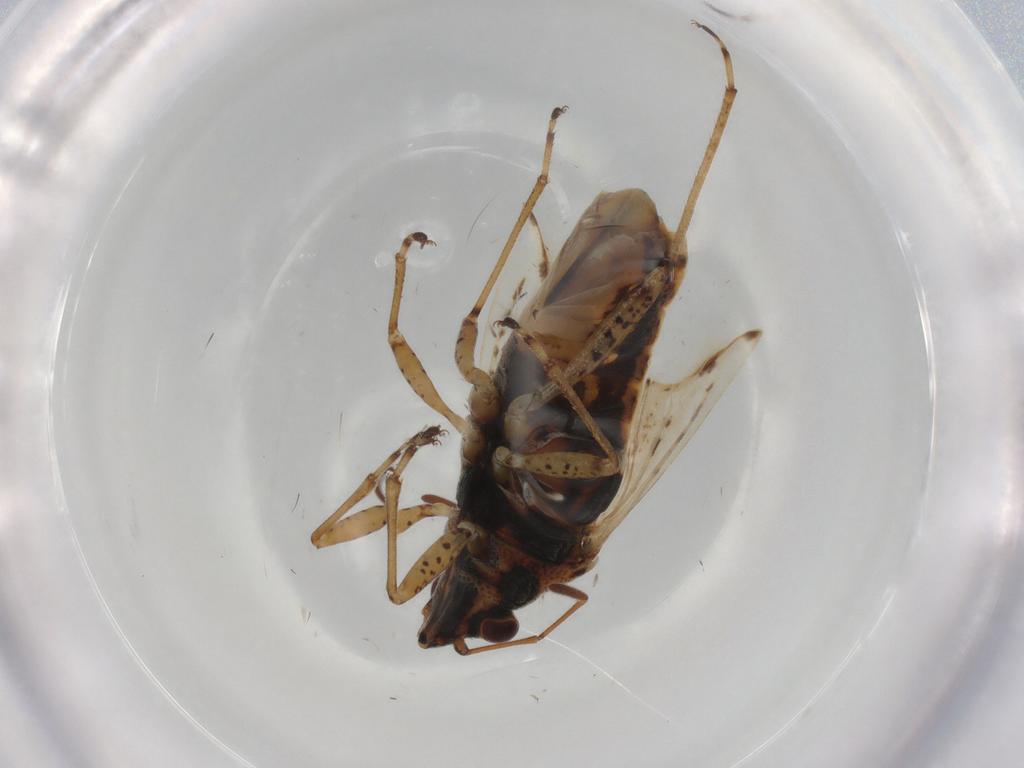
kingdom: Animalia
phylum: Arthropoda
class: Insecta
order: Hemiptera
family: Lygaeidae
